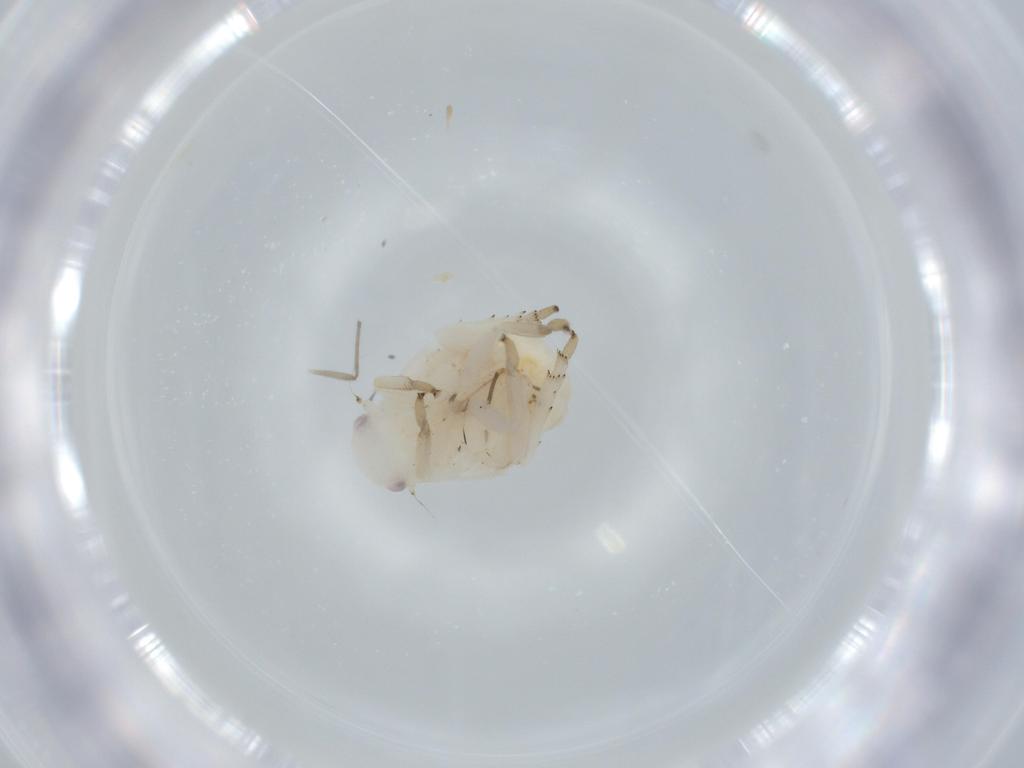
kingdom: Animalia
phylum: Arthropoda
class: Insecta
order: Hemiptera
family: Flatidae
